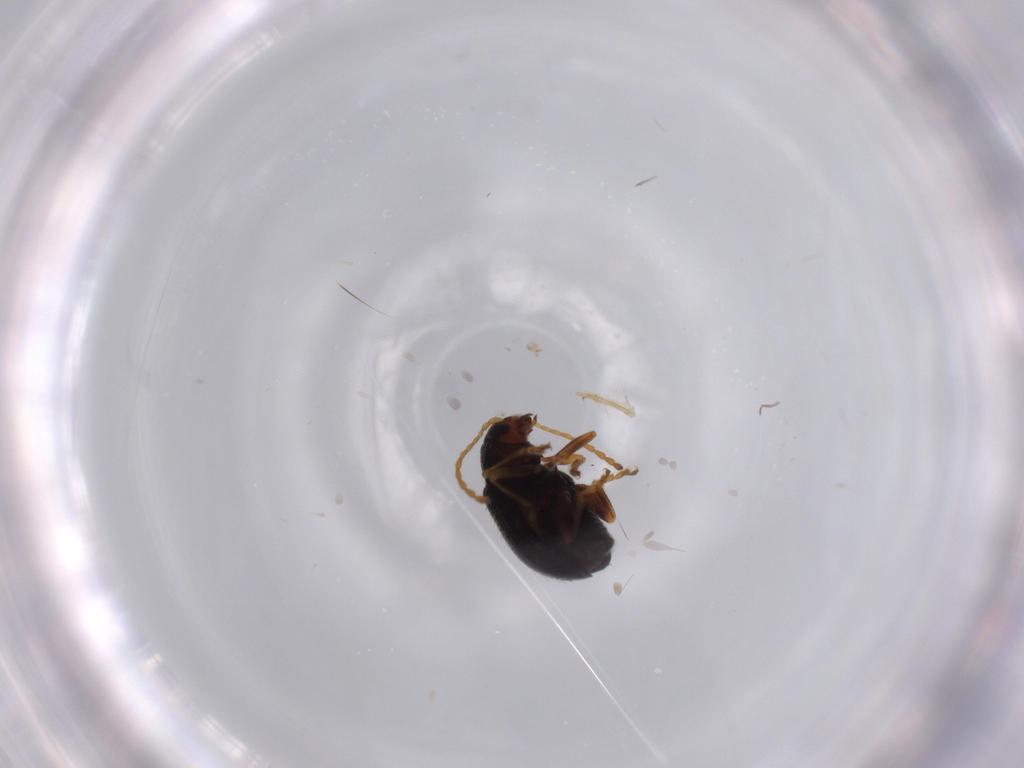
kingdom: Animalia
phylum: Arthropoda
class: Insecta
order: Coleoptera
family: Chrysomelidae
